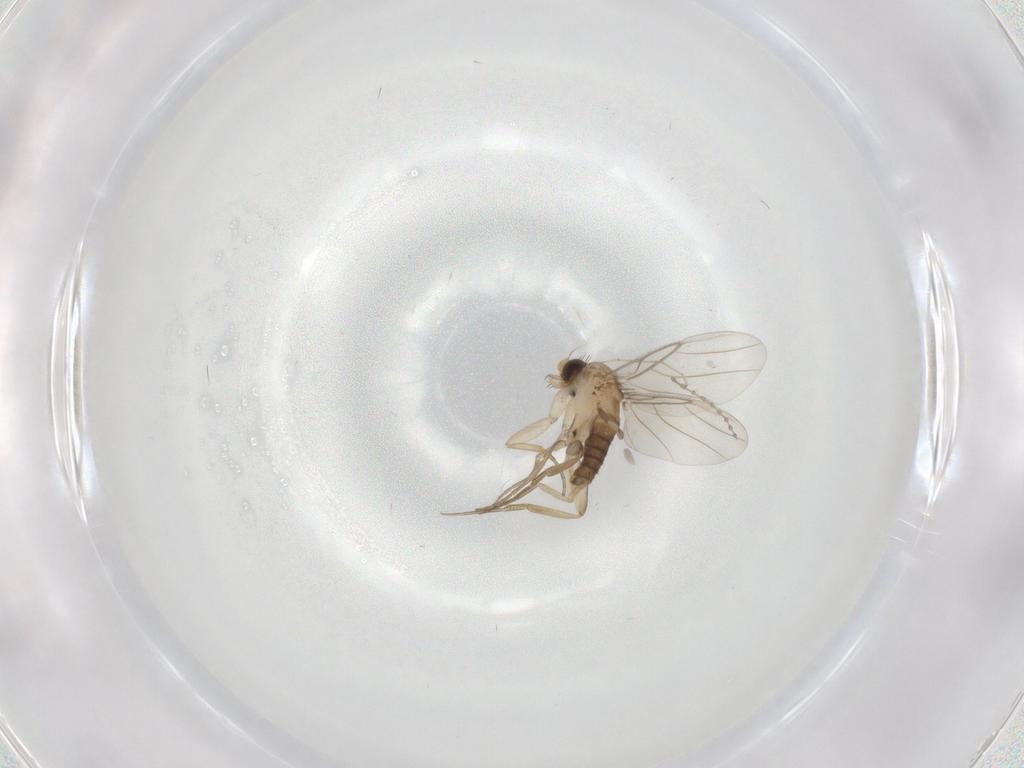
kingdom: Animalia
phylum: Arthropoda
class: Insecta
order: Diptera
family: Phoridae
